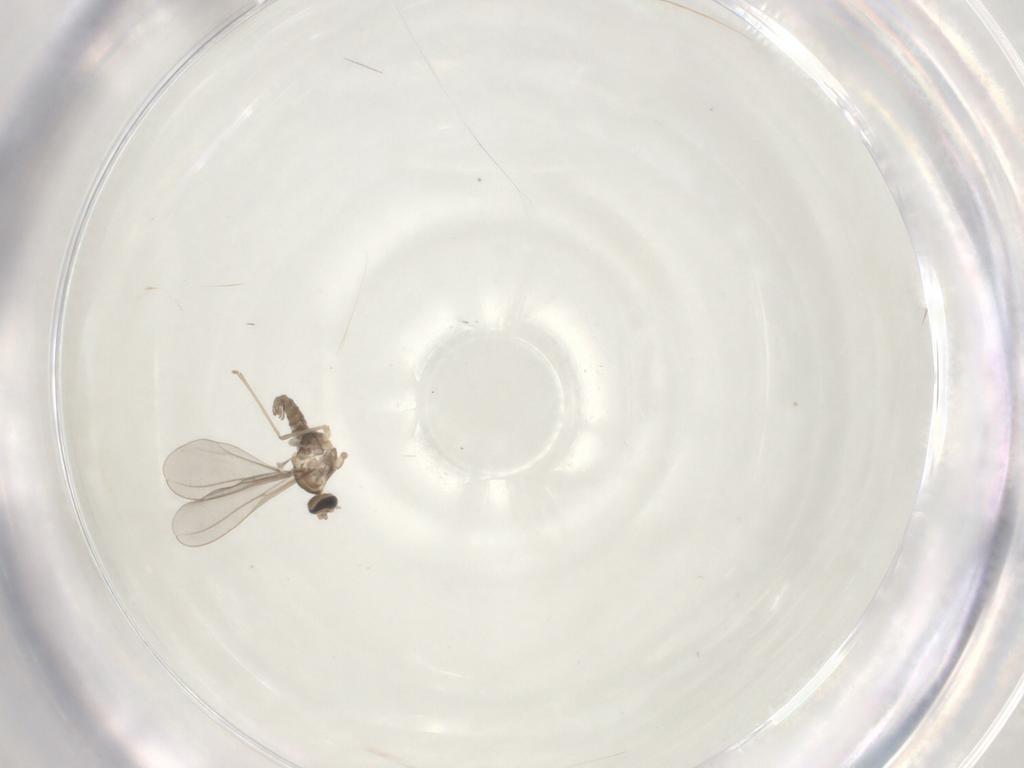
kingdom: Animalia
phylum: Arthropoda
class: Insecta
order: Diptera
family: Cecidomyiidae
